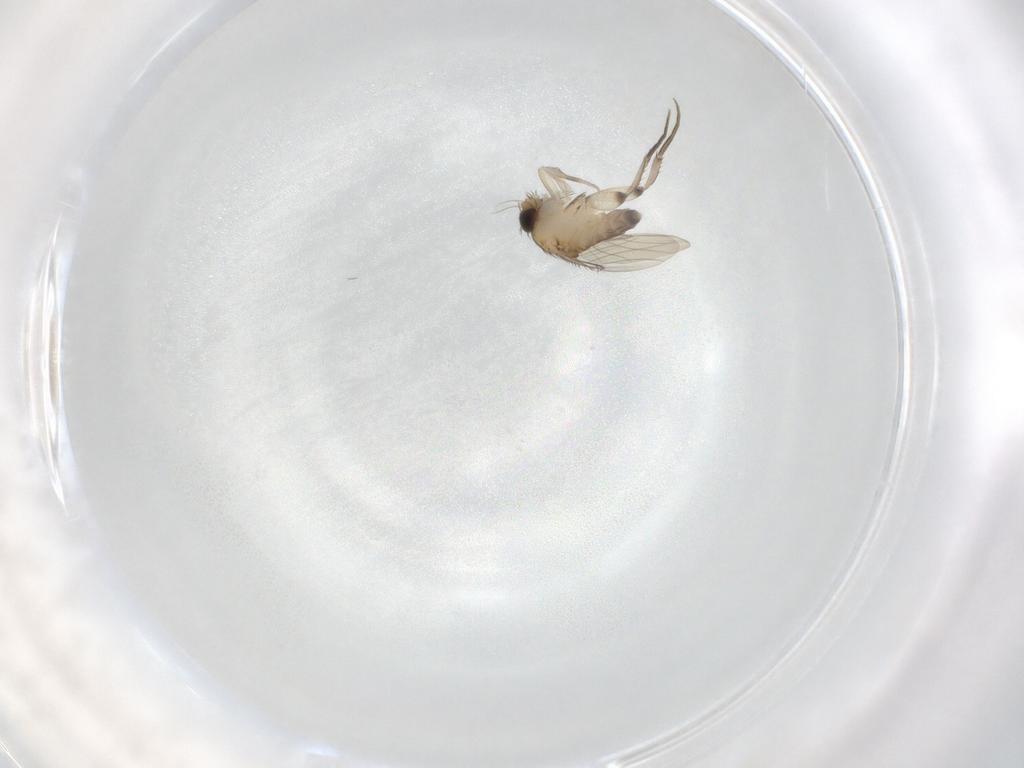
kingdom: Animalia
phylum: Arthropoda
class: Insecta
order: Diptera
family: Phoridae
